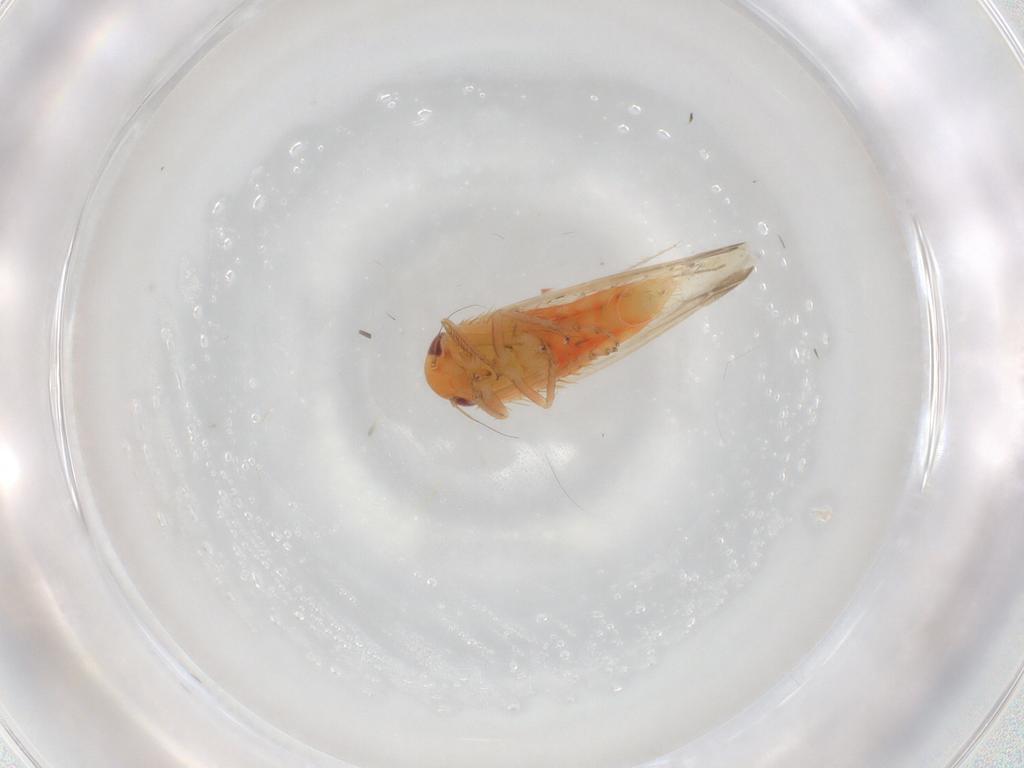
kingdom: Animalia
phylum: Arthropoda
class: Insecta
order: Hemiptera
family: Cicadellidae
